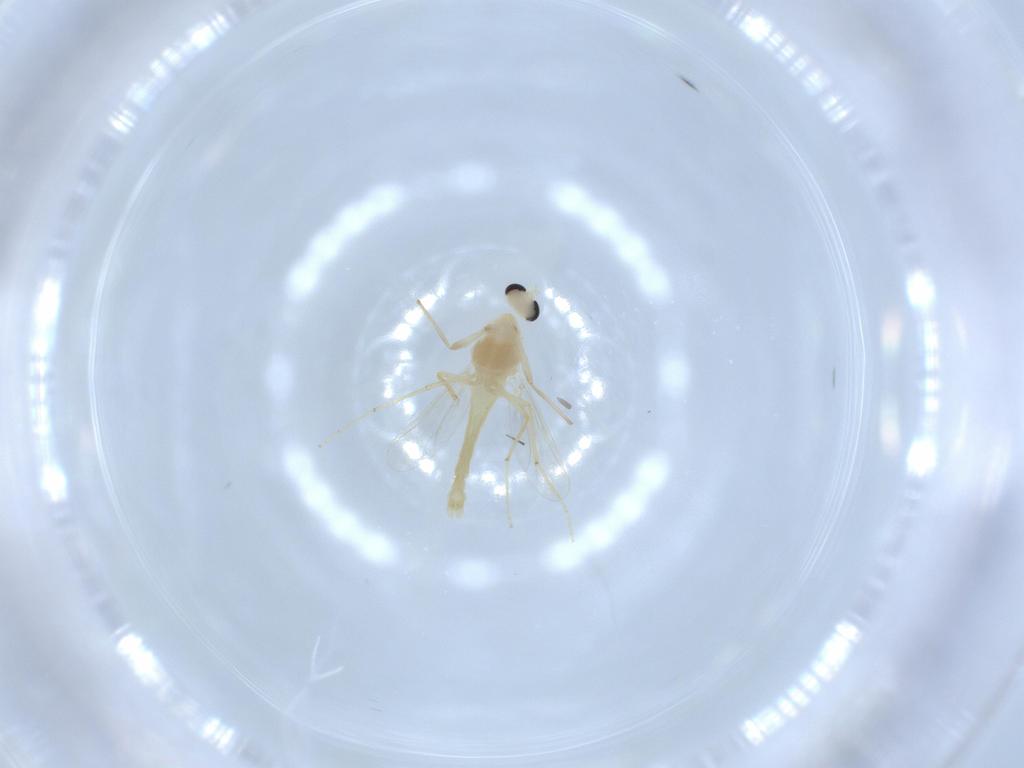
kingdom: Animalia
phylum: Arthropoda
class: Insecta
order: Diptera
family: Chironomidae
